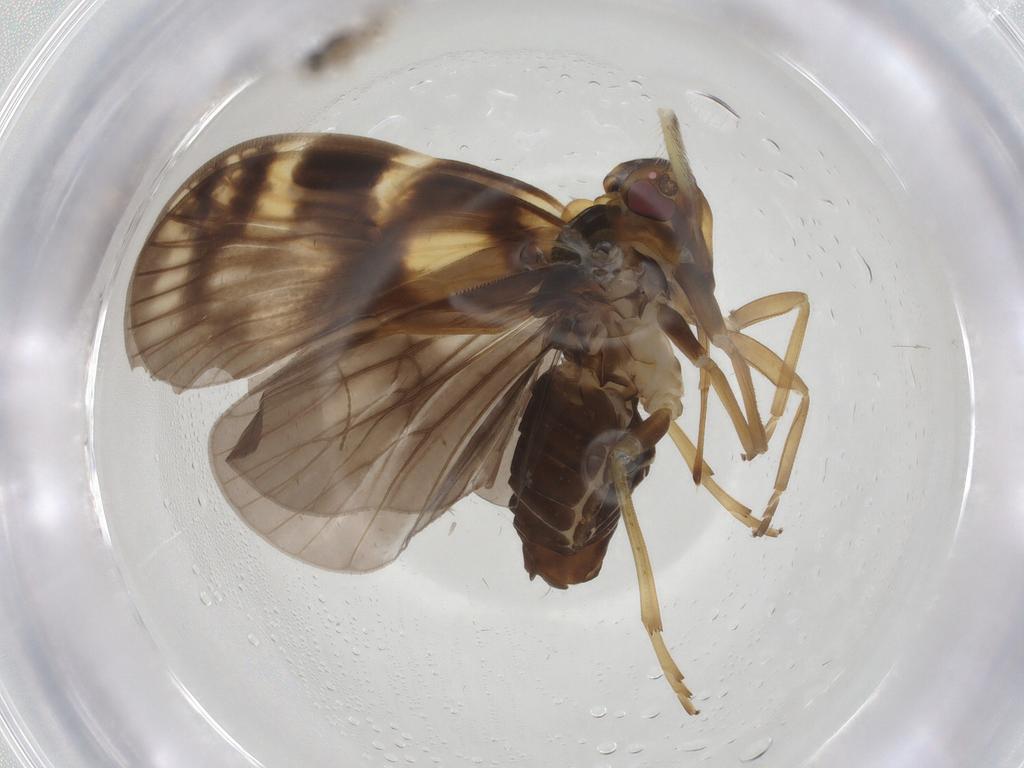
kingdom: Animalia
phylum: Arthropoda
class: Insecta
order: Hemiptera
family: Cixiidae
